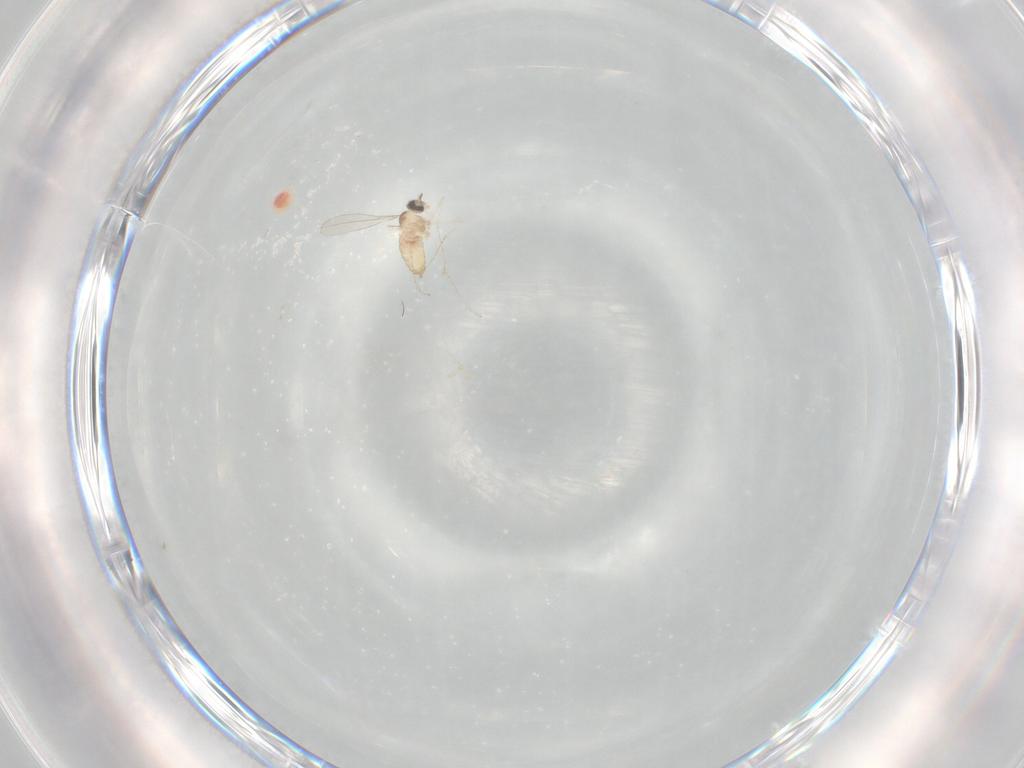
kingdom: Animalia
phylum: Arthropoda
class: Insecta
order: Diptera
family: Cecidomyiidae
